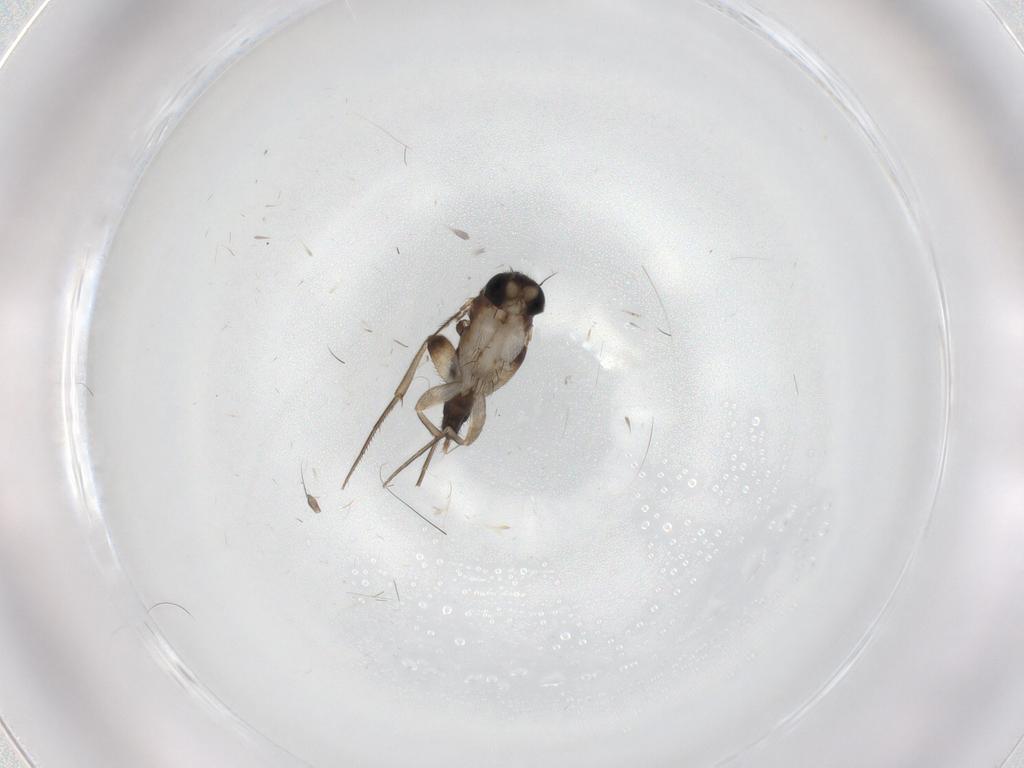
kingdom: Animalia
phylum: Arthropoda
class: Insecta
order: Diptera
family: Phoridae
